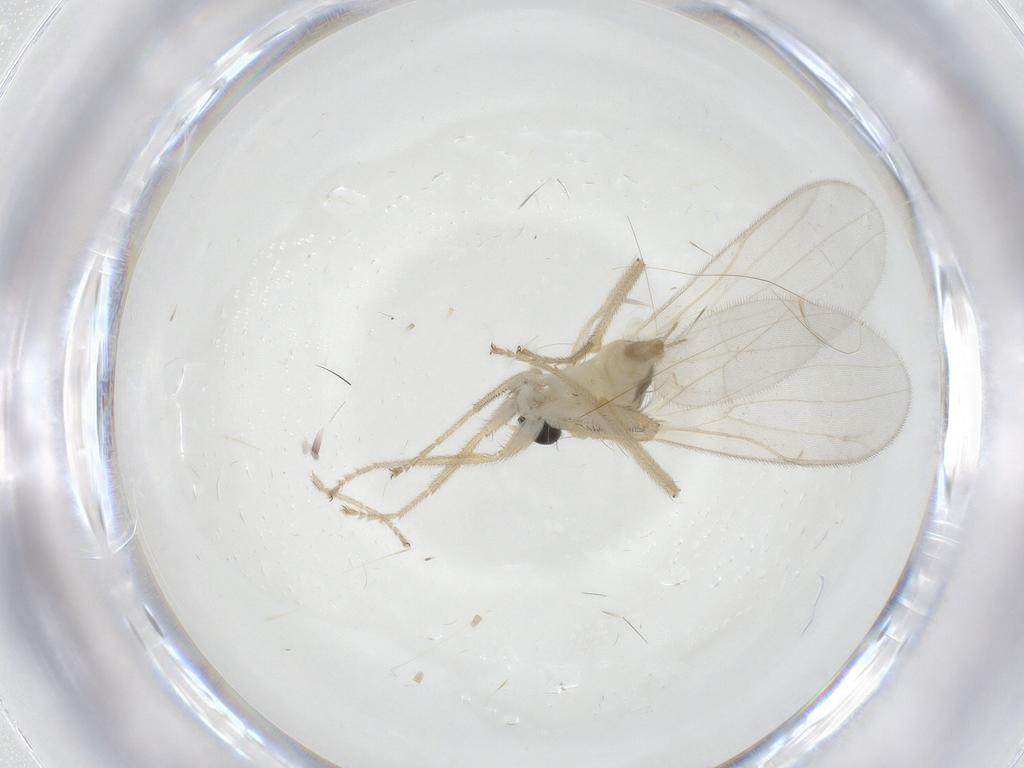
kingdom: Animalia
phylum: Arthropoda
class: Insecta
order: Diptera
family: Hybotidae
